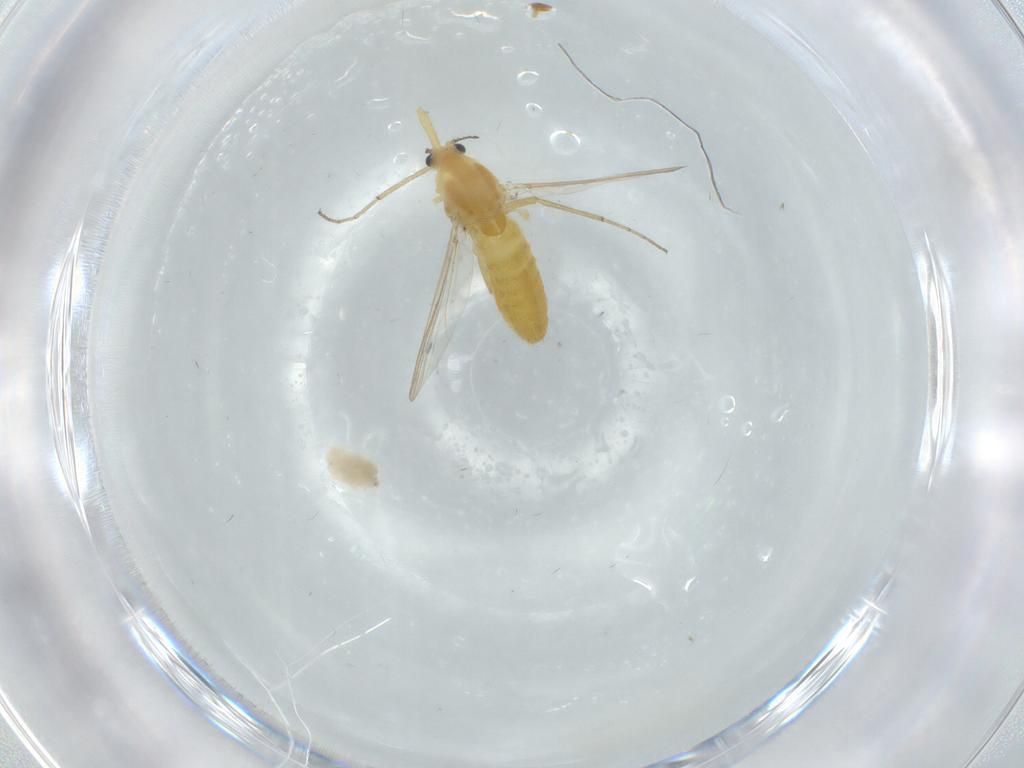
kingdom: Animalia
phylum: Arthropoda
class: Insecta
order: Diptera
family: Chironomidae
